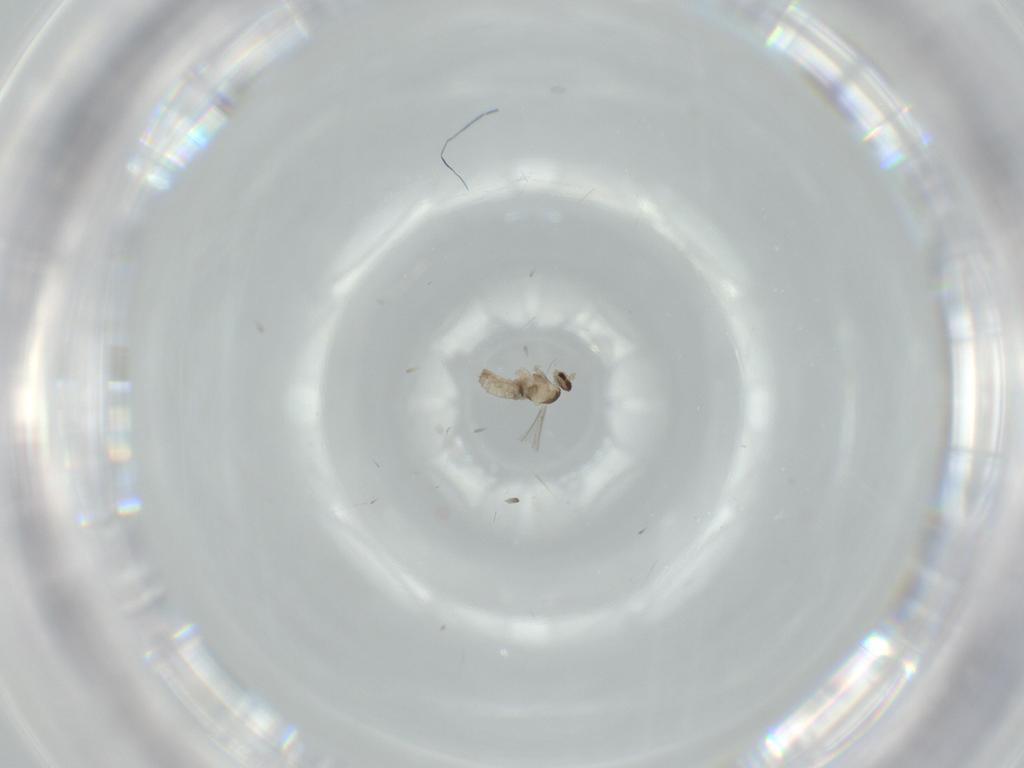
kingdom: Animalia
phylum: Arthropoda
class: Insecta
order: Diptera
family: Cecidomyiidae
